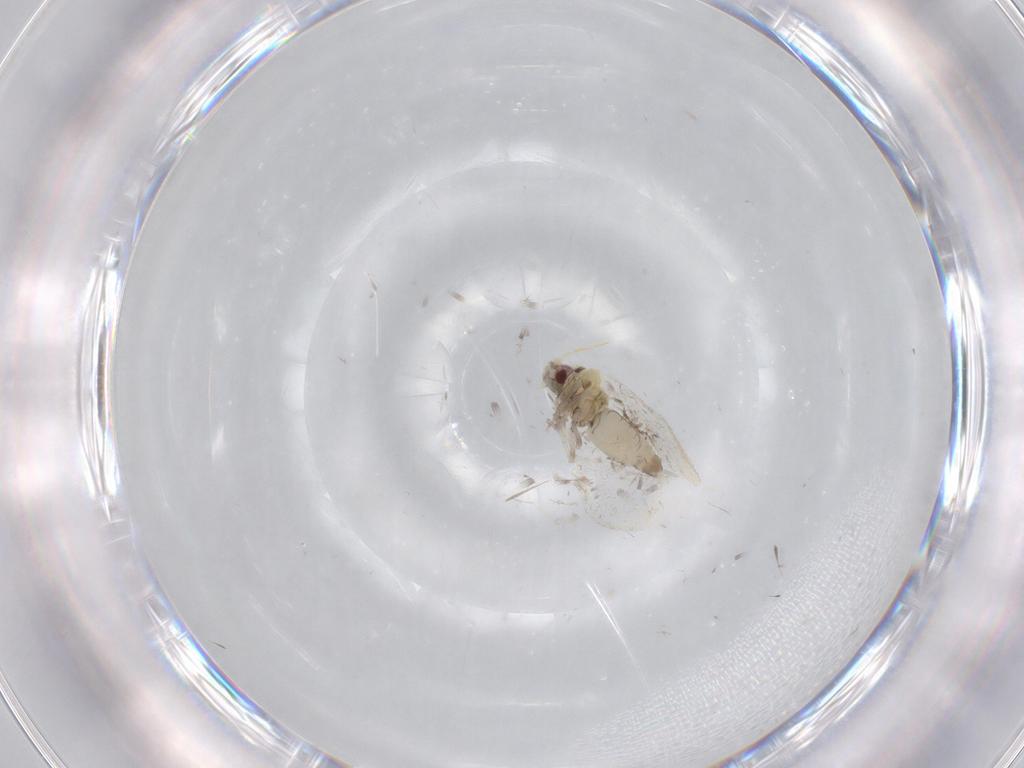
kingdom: Animalia
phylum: Arthropoda
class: Insecta
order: Hemiptera
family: Aleyrodidae
